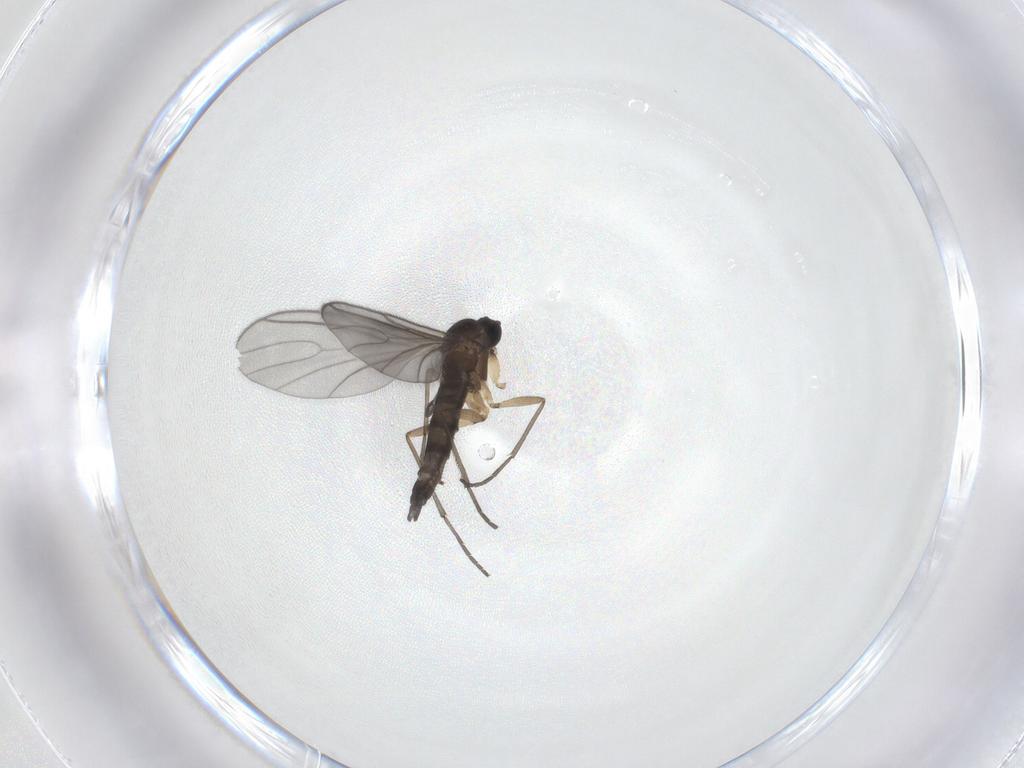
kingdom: Animalia
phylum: Arthropoda
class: Insecta
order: Diptera
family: Sciaridae
